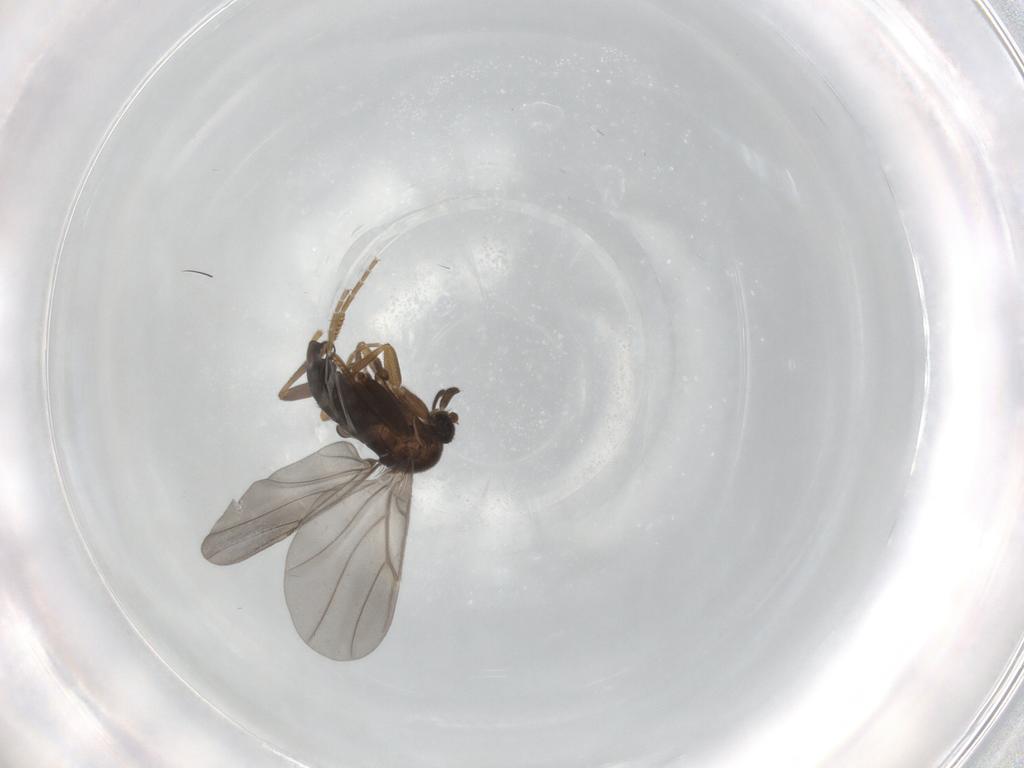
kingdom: Animalia
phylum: Arthropoda
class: Insecta
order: Diptera
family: Phoridae
